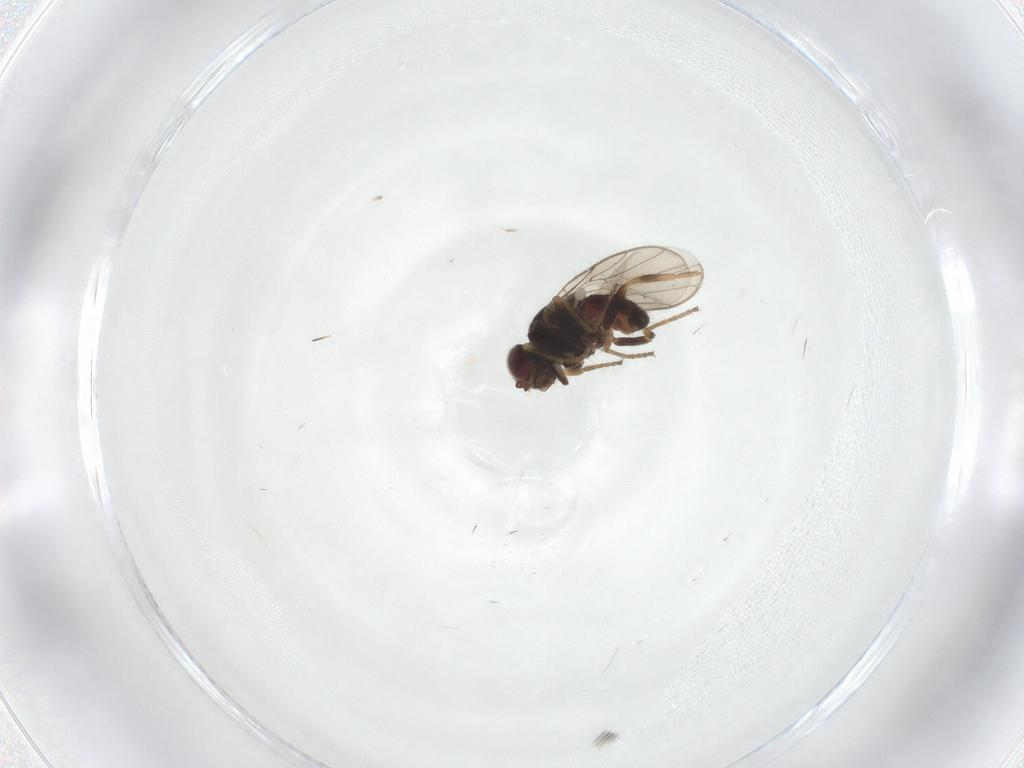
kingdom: Animalia
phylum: Arthropoda
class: Insecta
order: Diptera
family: Chloropidae
